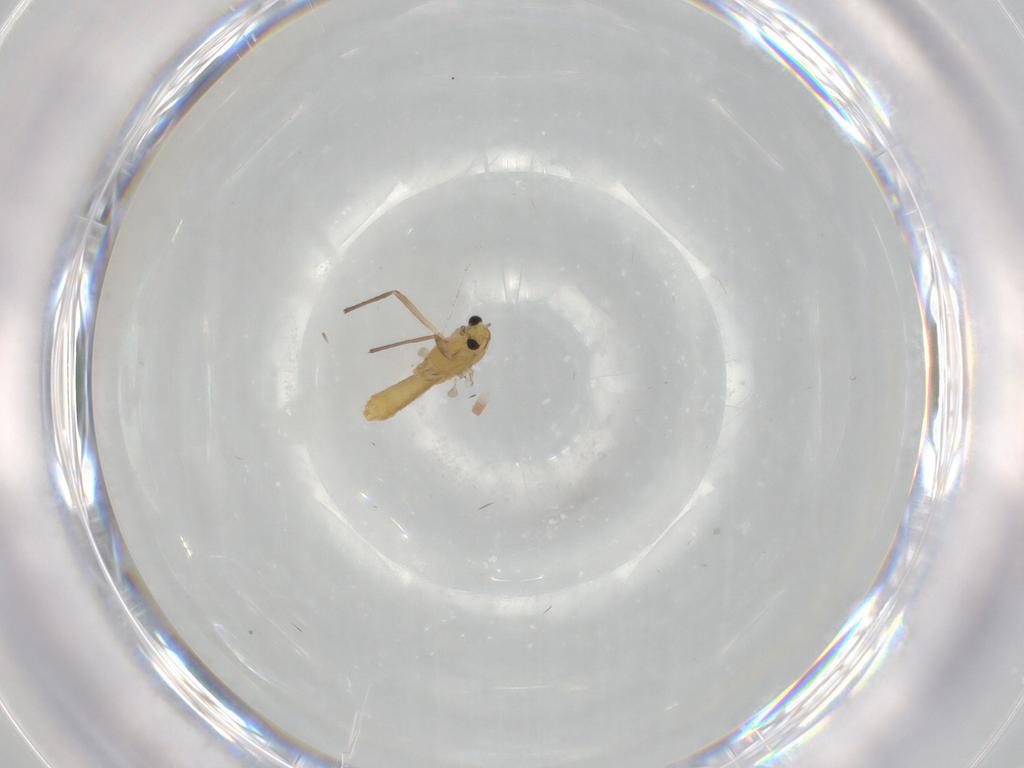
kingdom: Animalia
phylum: Arthropoda
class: Insecta
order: Diptera
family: Chironomidae
